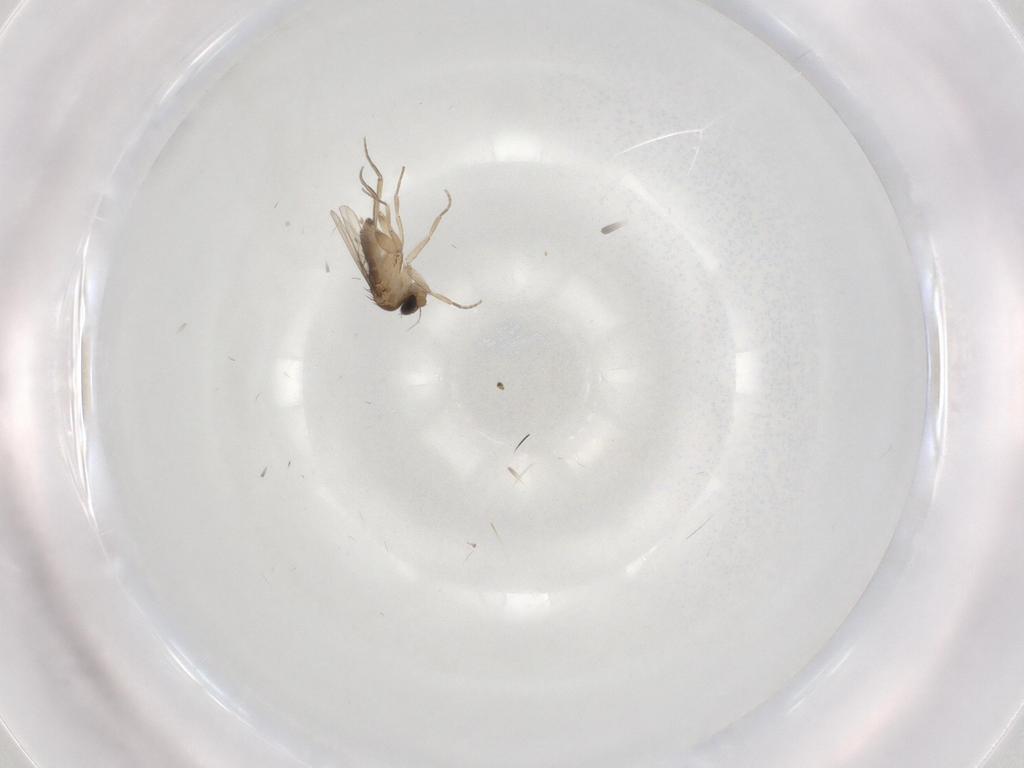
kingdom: Animalia
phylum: Arthropoda
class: Insecta
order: Diptera
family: Phoridae
